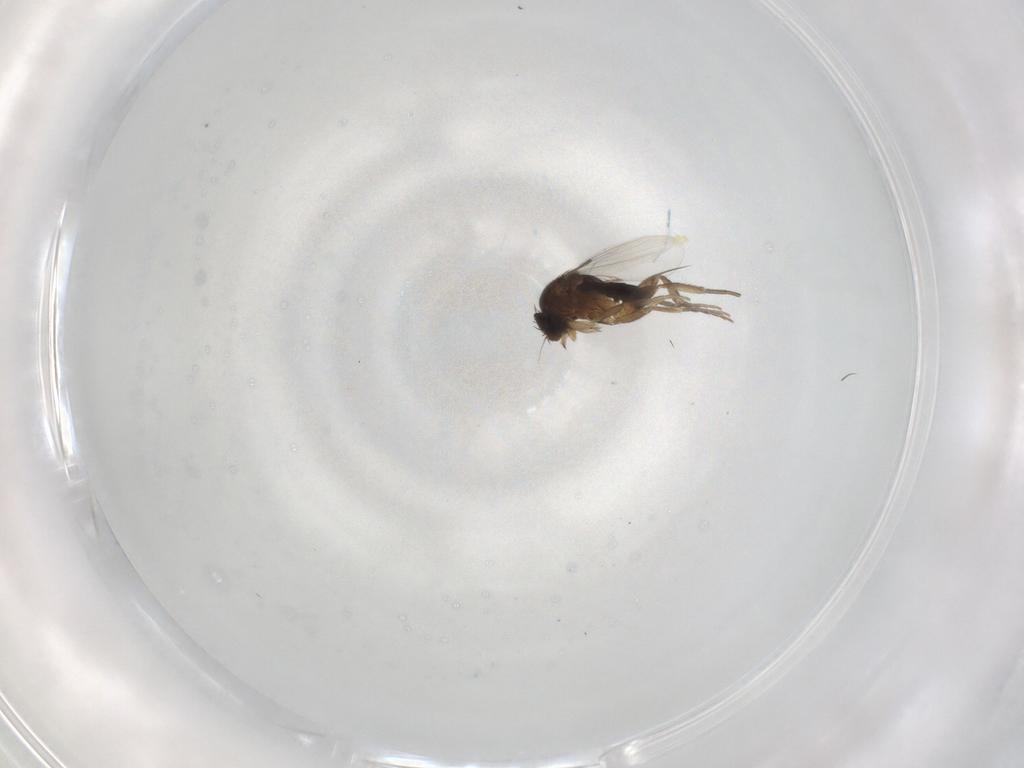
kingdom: Animalia
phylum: Arthropoda
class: Insecta
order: Diptera
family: Phoridae
